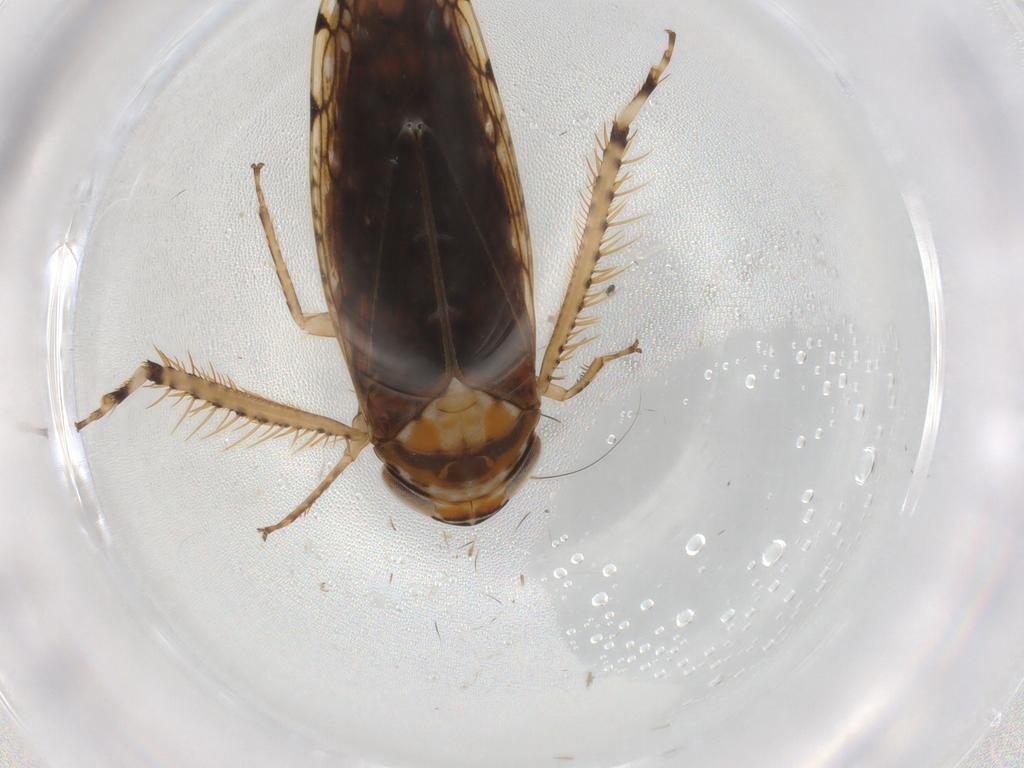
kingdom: Animalia
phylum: Arthropoda
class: Insecta
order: Hemiptera
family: Cicadellidae
